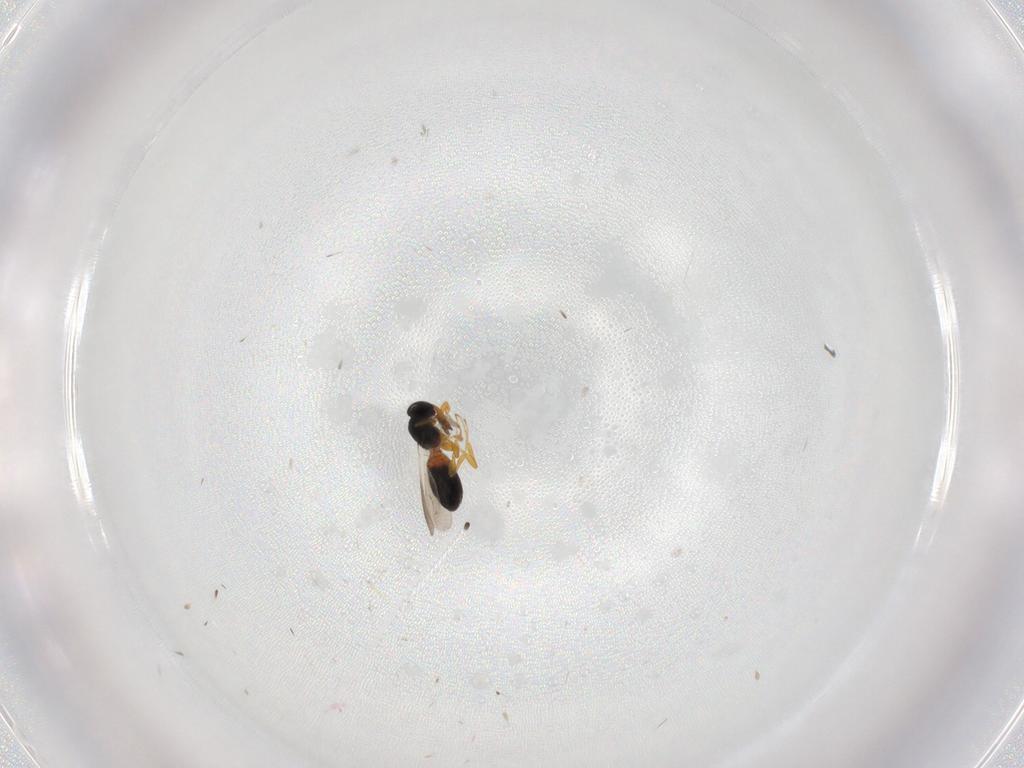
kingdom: Animalia
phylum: Arthropoda
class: Insecta
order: Hymenoptera
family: Platygastridae
